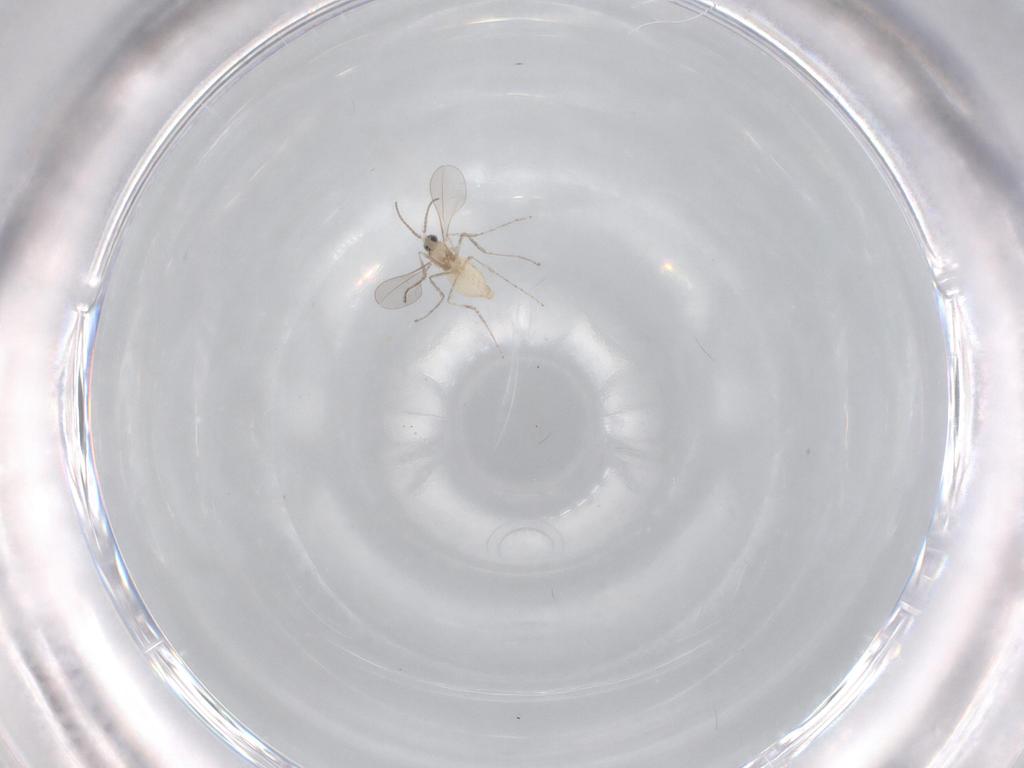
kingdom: Animalia
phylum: Arthropoda
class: Insecta
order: Diptera
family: Cecidomyiidae
